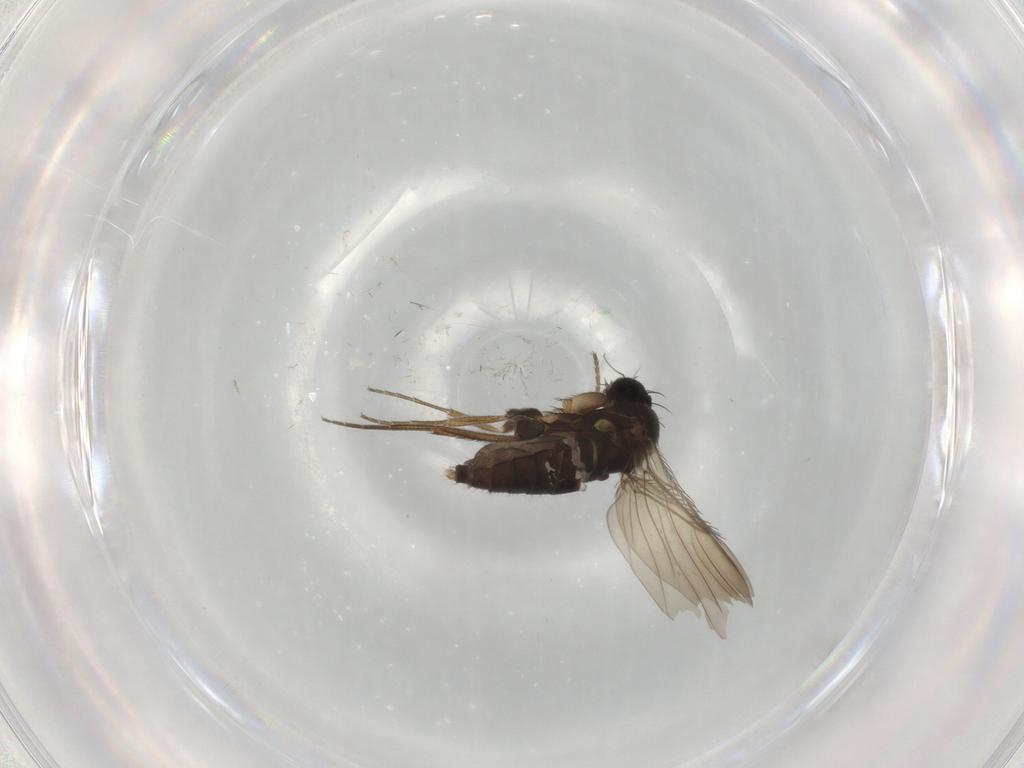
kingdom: Animalia
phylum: Arthropoda
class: Insecta
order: Diptera
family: Phoridae
